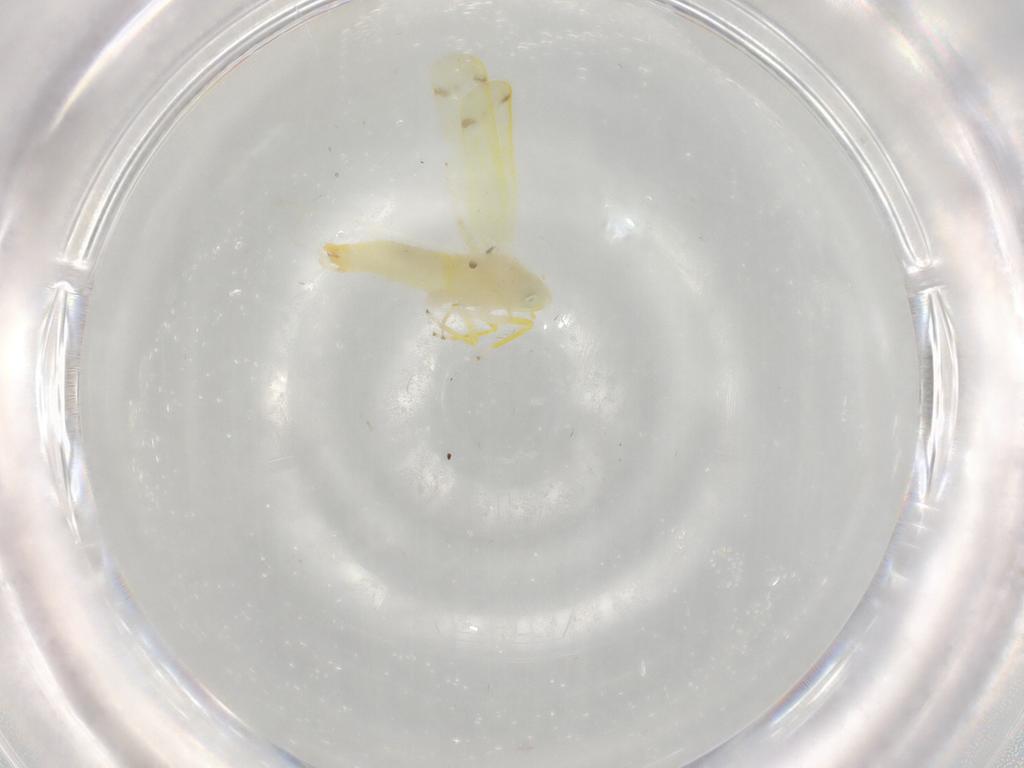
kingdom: Animalia
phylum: Arthropoda
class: Insecta
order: Hemiptera
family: Cicadellidae
